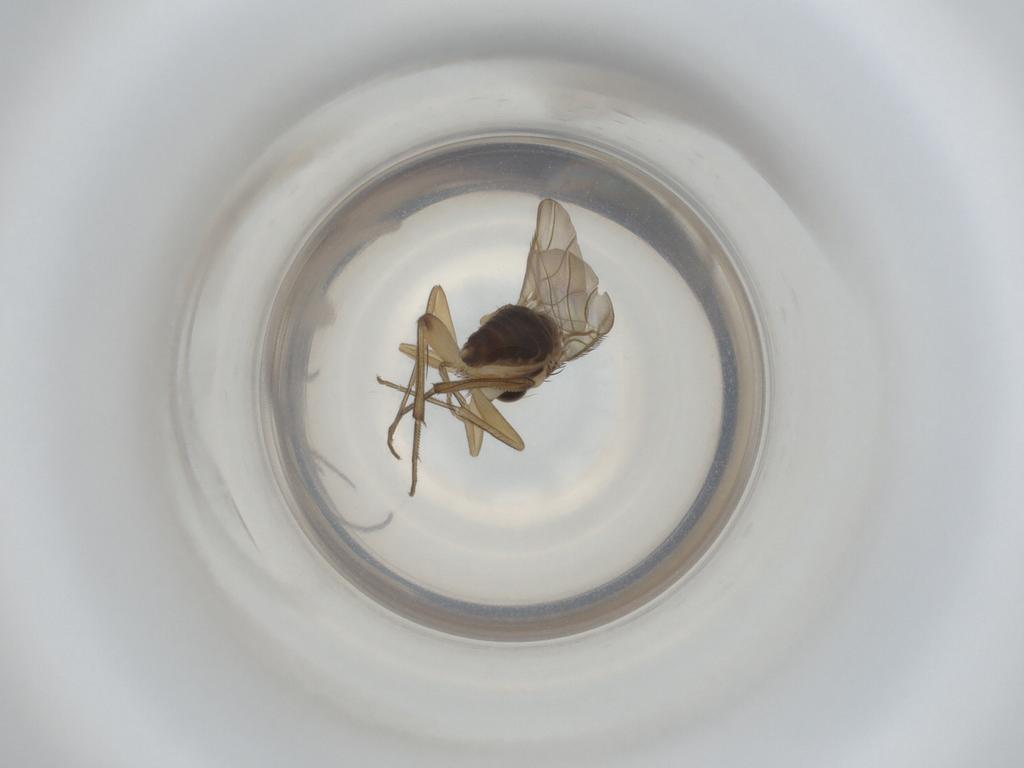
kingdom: Animalia
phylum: Arthropoda
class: Insecta
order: Diptera
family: Phoridae
